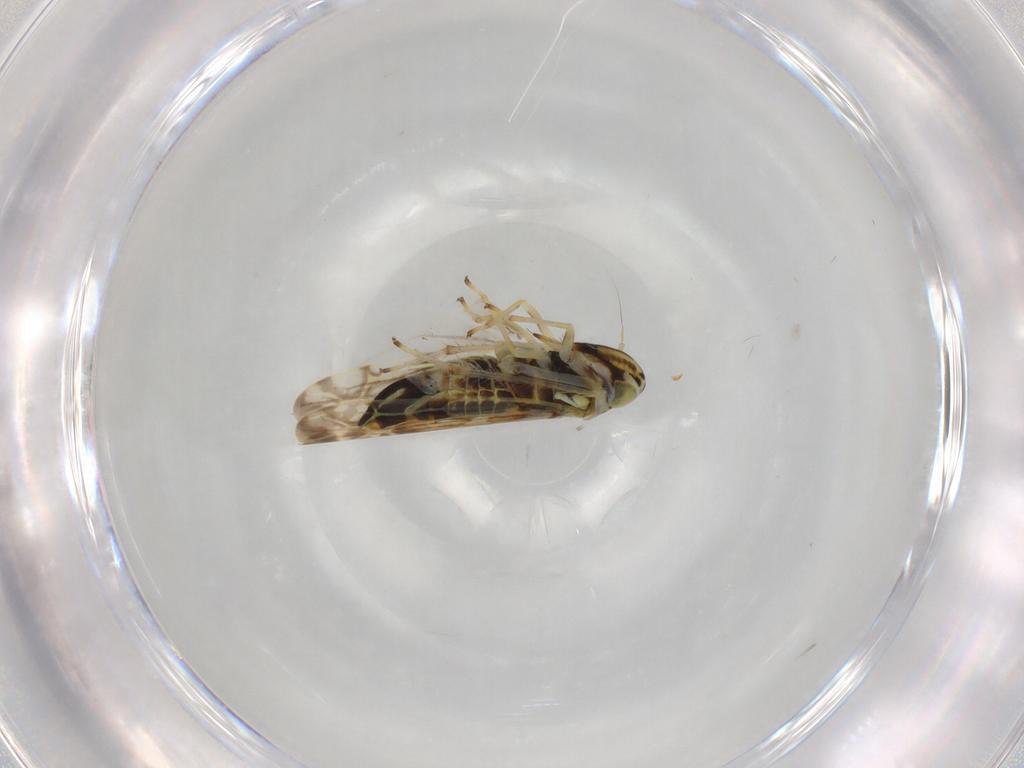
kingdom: Animalia
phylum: Arthropoda
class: Insecta
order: Hemiptera
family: Cicadellidae
